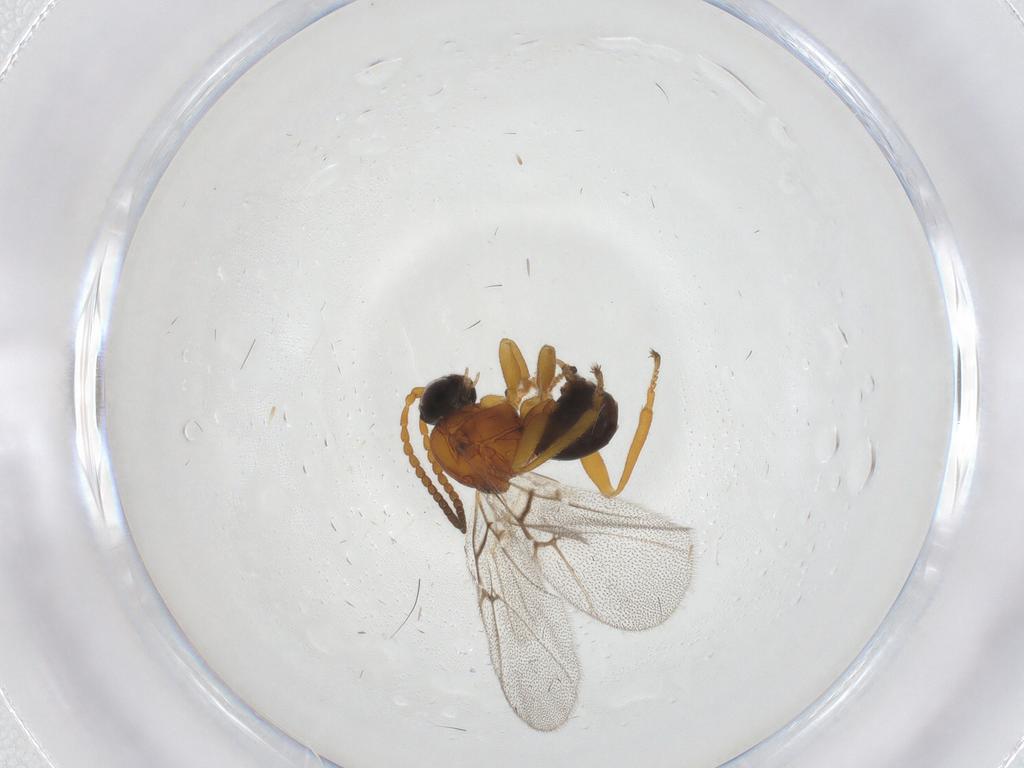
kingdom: Animalia
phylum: Arthropoda
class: Insecta
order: Hymenoptera
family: Cynipidae
